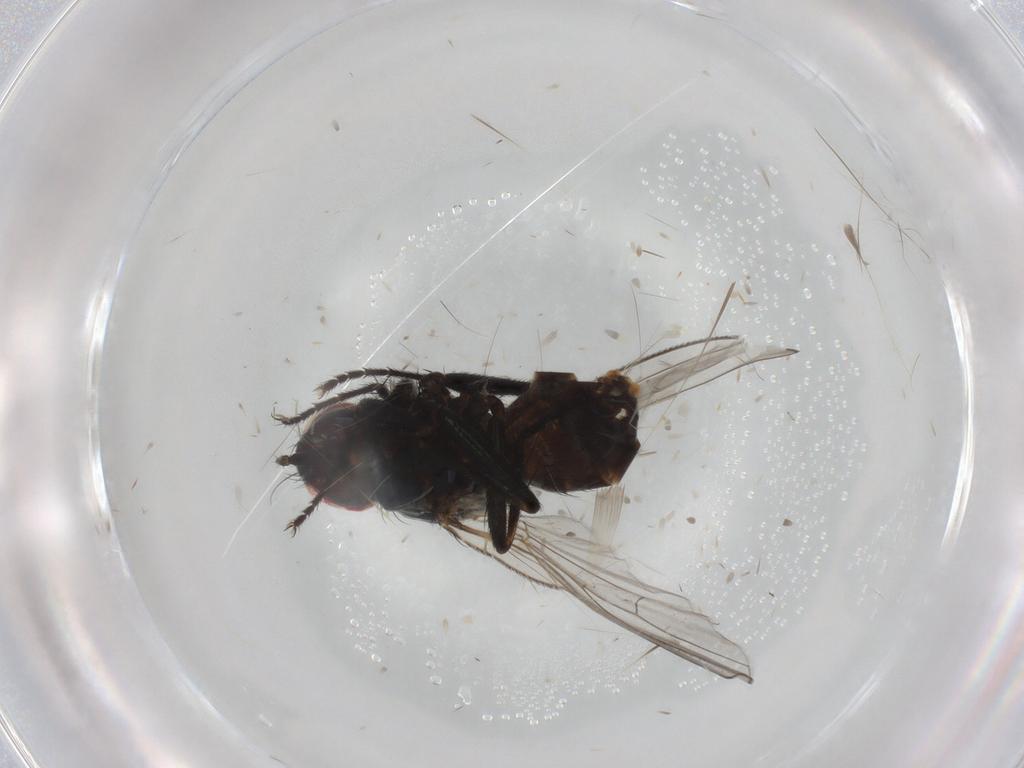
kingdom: Animalia
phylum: Arthropoda
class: Insecta
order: Diptera
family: Muscidae
